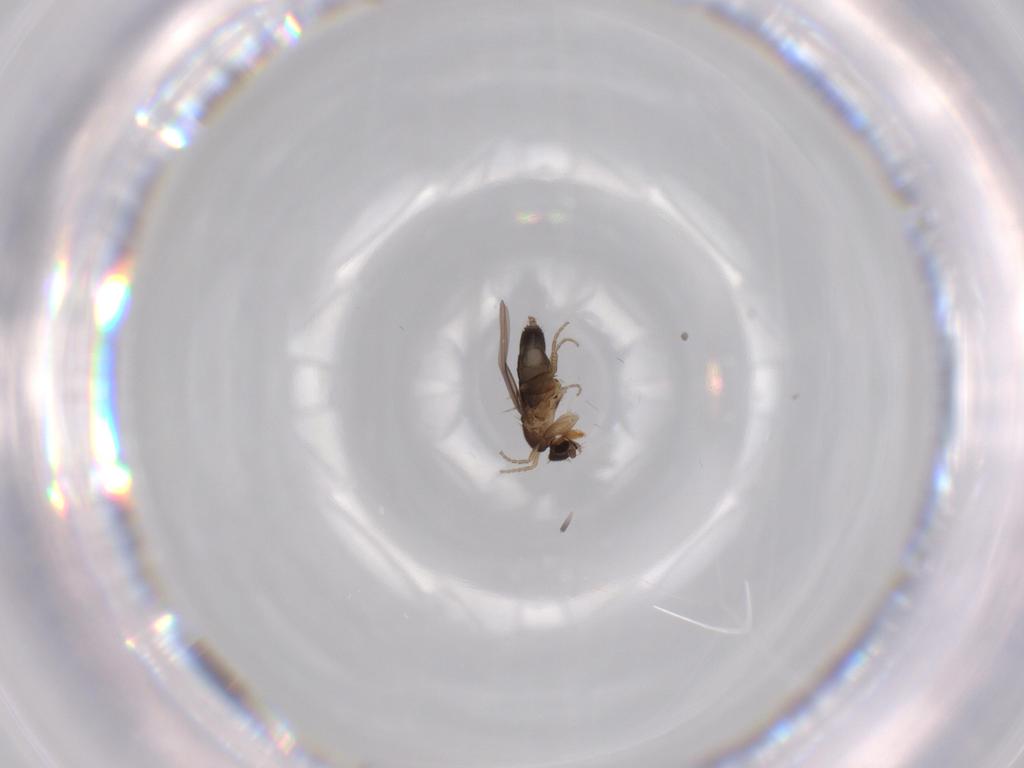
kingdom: Animalia
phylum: Arthropoda
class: Insecta
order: Diptera
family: Phoridae
